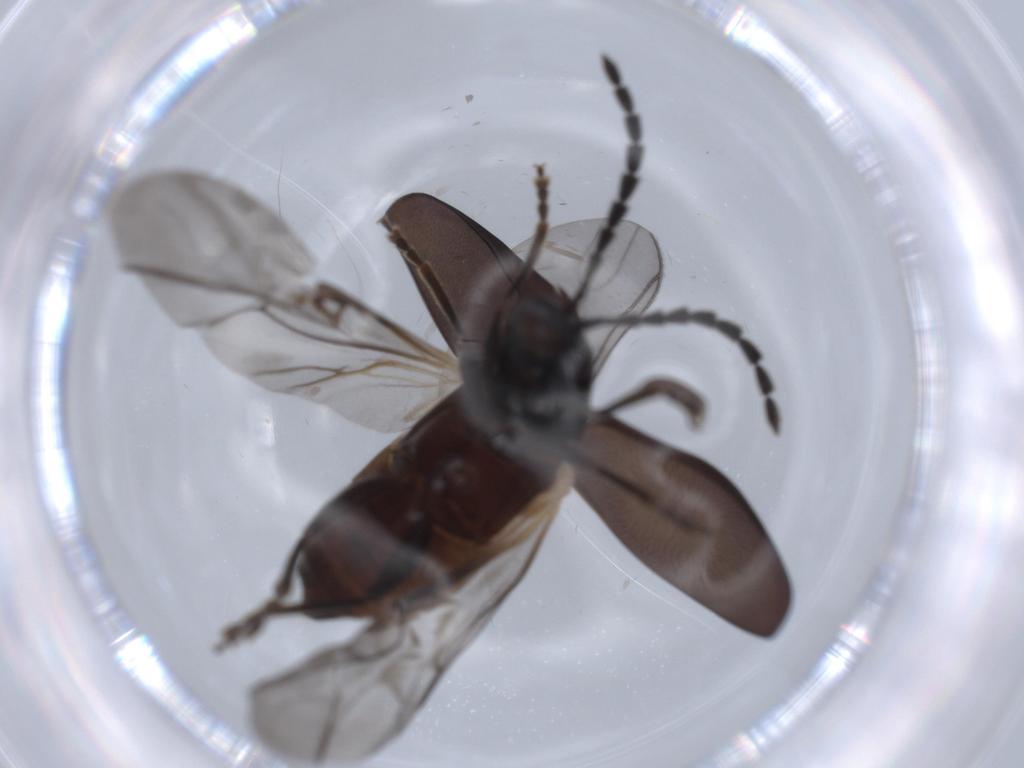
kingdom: Animalia
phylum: Arthropoda
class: Insecta
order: Coleoptera
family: Chrysomelidae
